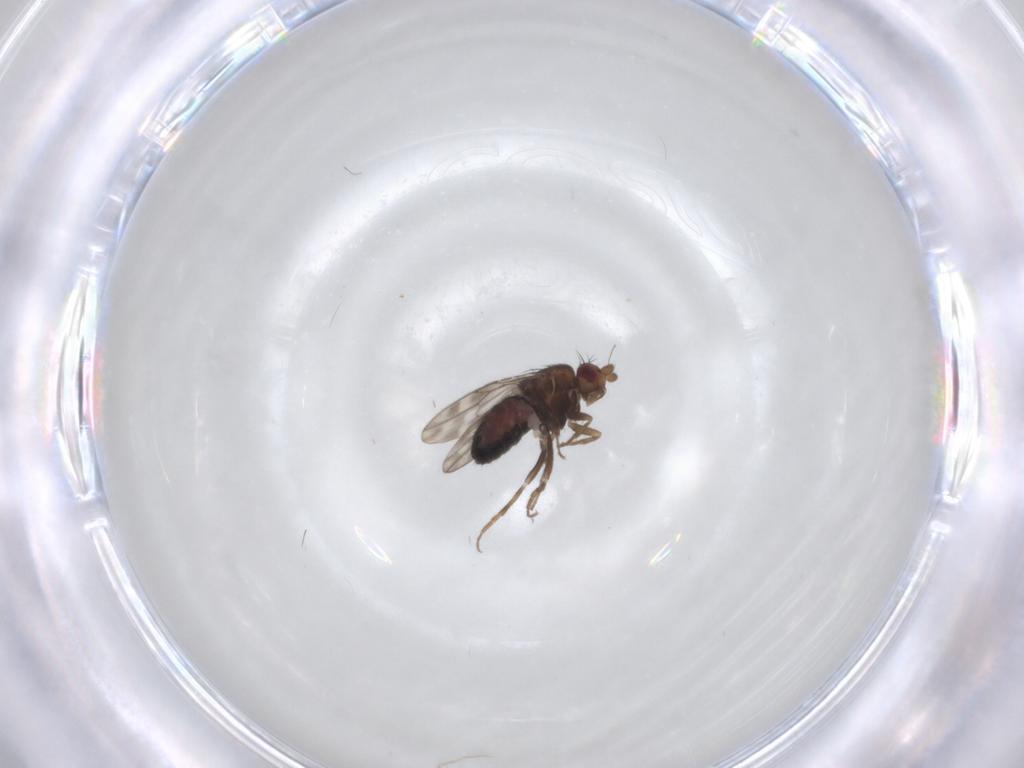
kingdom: Animalia
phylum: Arthropoda
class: Insecta
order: Diptera
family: Sphaeroceridae
